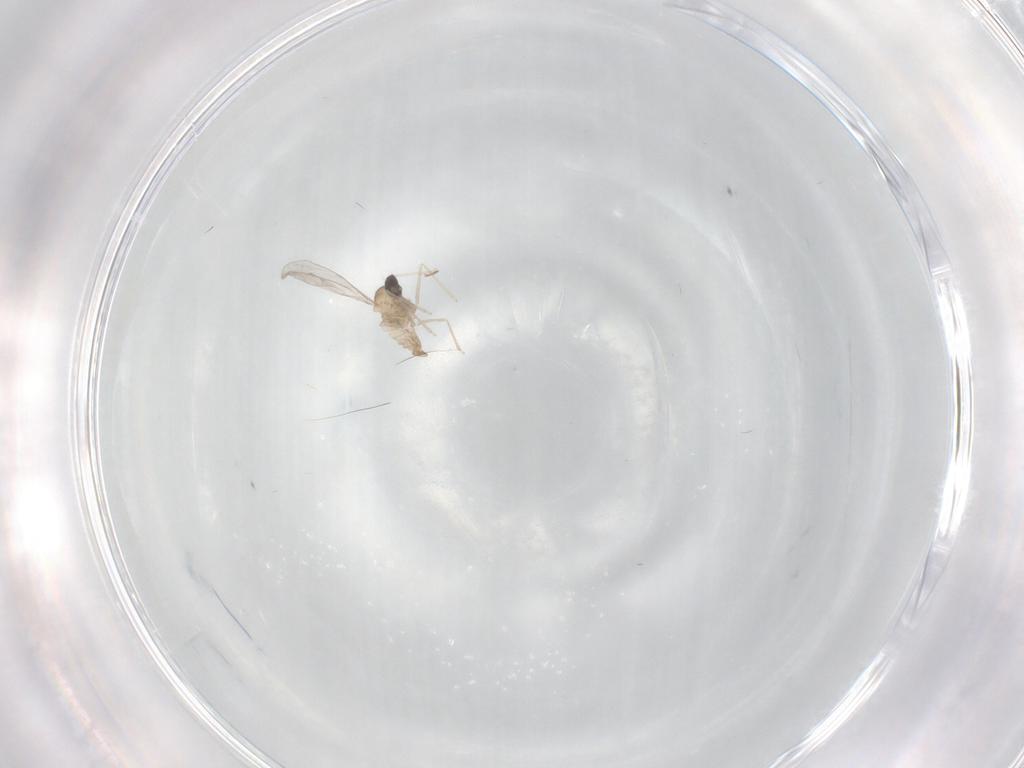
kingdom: Animalia
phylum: Arthropoda
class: Insecta
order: Diptera
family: Cecidomyiidae
